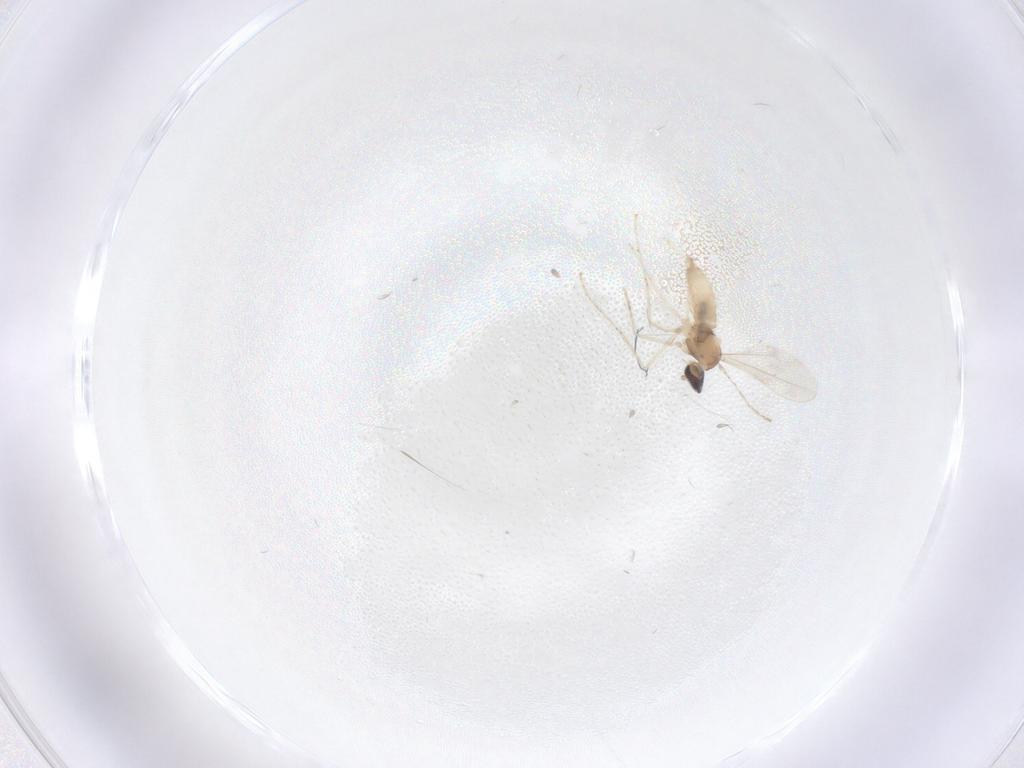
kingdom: Animalia
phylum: Arthropoda
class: Insecta
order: Diptera
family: Cecidomyiidae
